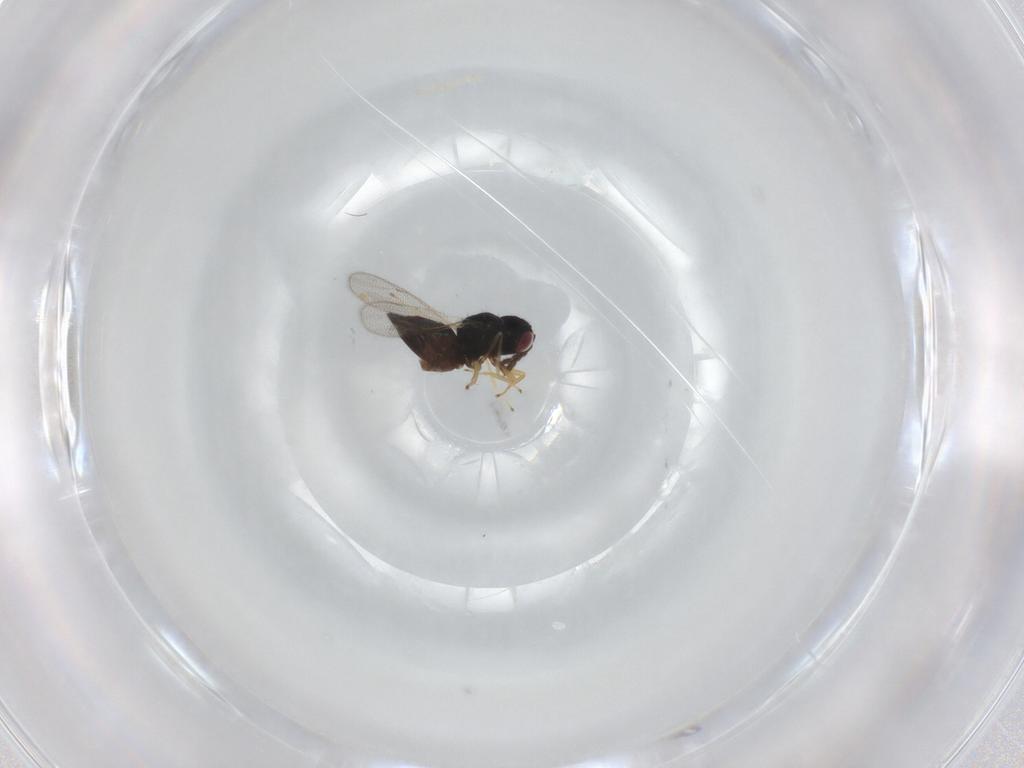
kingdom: Animalia
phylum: Arthropoda
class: Insecta
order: Hymenoptera
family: Eulophidae
